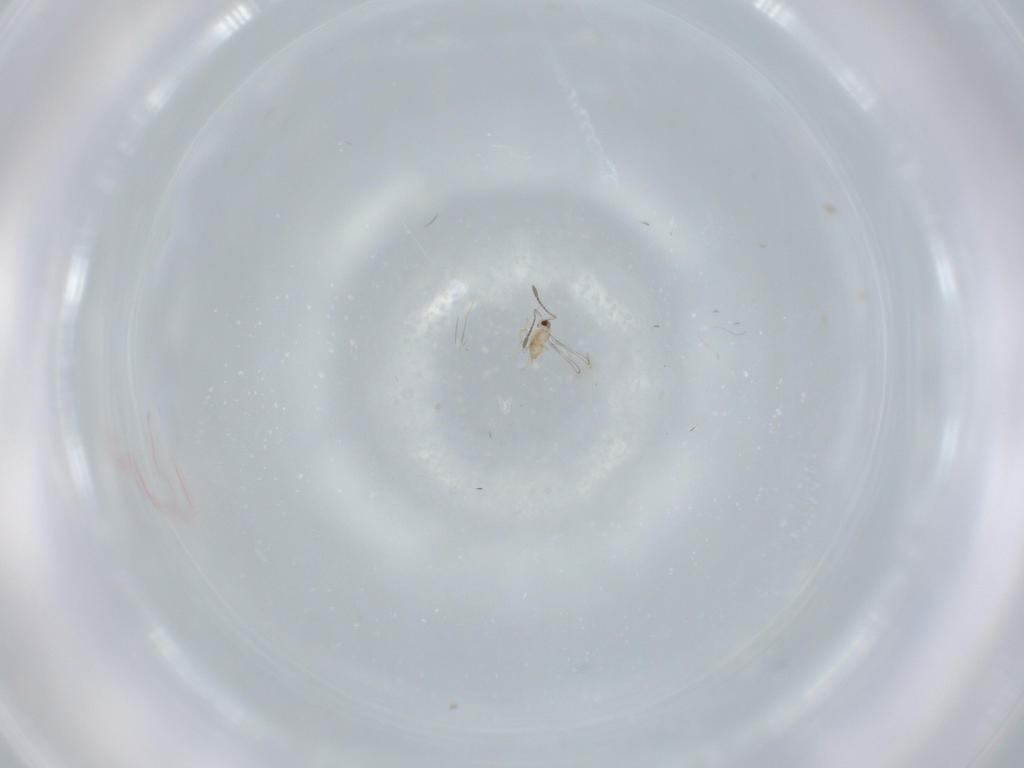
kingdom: Animalia
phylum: Arthropoda
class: Insecta
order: Hymenoptera
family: Mymaridae
